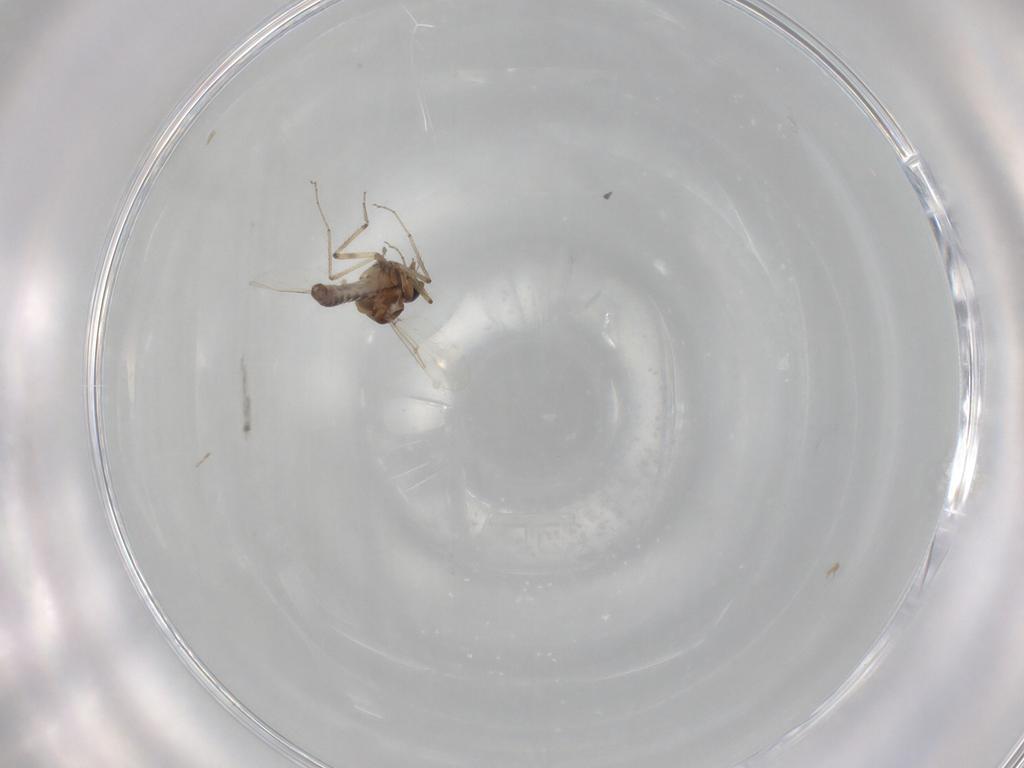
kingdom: Animalia
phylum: Arthropoda
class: Insecta
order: Diptera
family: Ceratopogonidae
